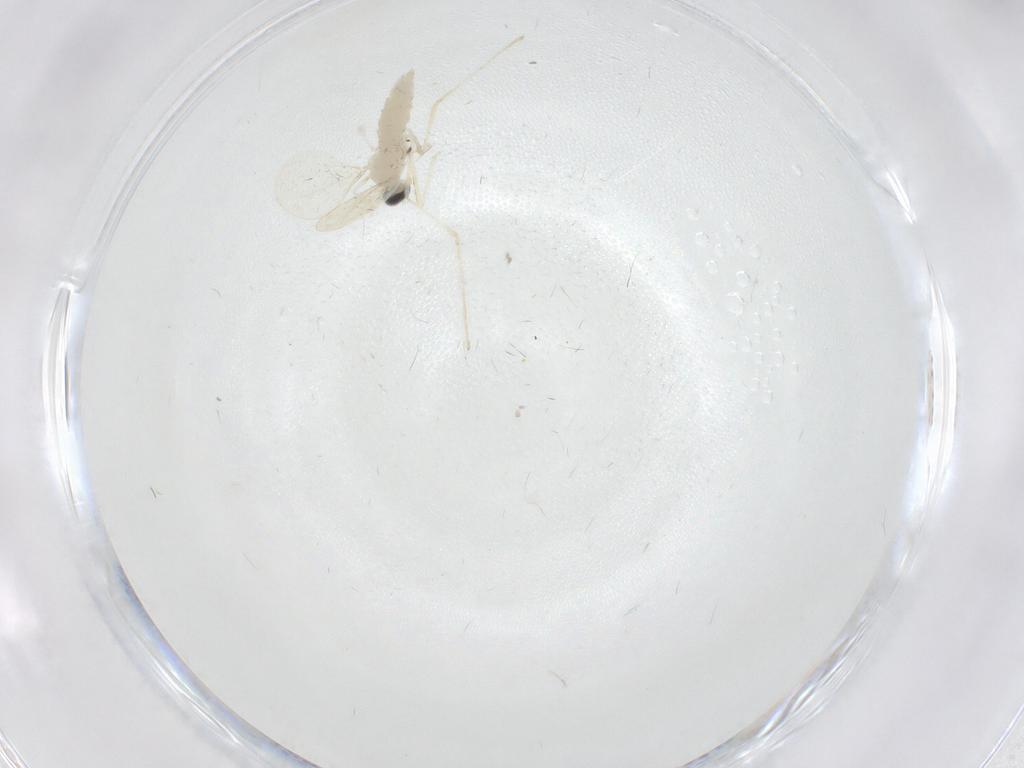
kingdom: Animalia
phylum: Arthropoda
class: Insecta
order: Diptera
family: Cecidomyiidae
